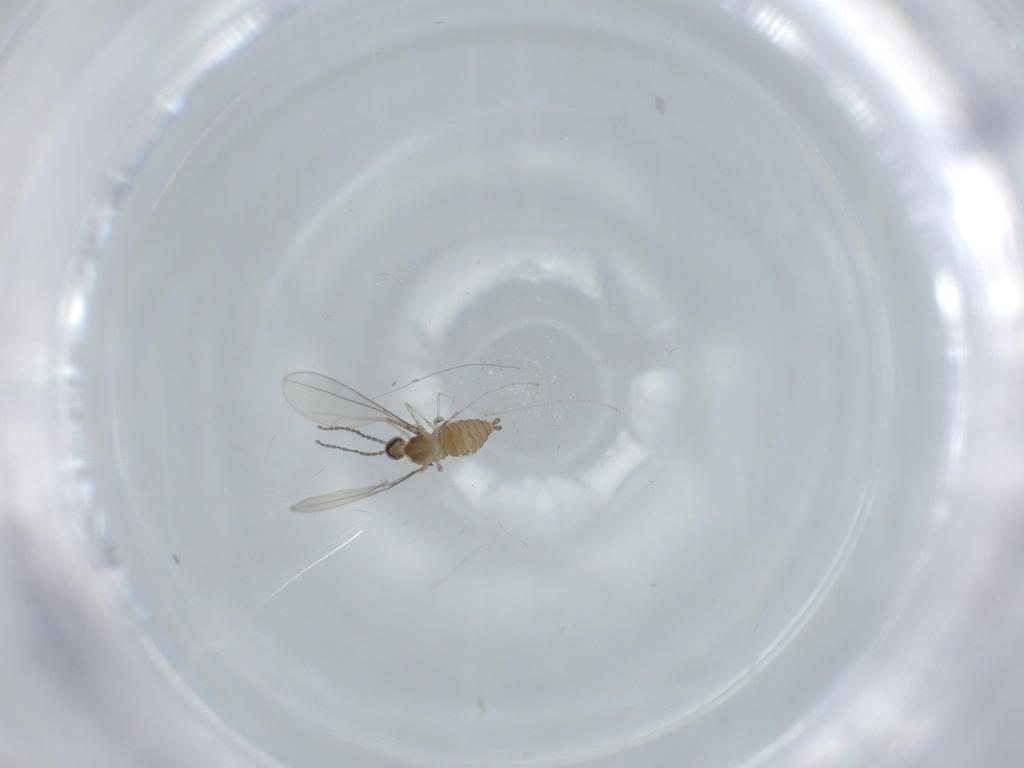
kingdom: Animalia
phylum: Arthropoda
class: Insecta
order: Diptera
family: Cecidomyiidae
